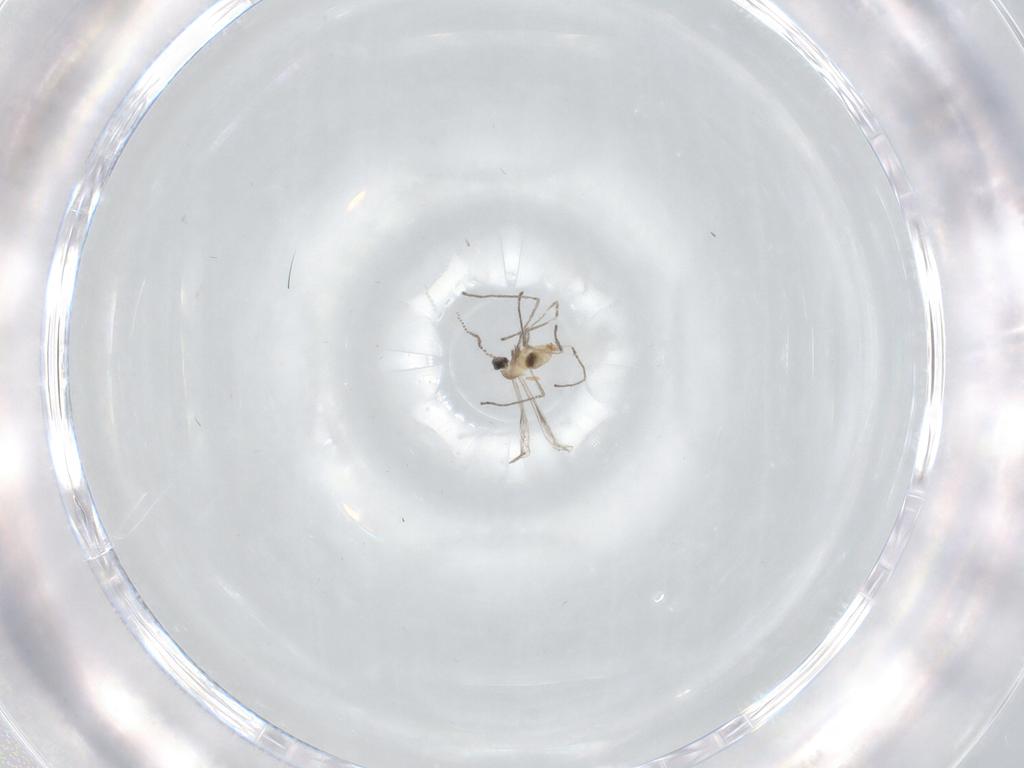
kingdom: Animalia
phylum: Arthropoda
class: Insecta
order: Diptera
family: Cecidomyiidae
